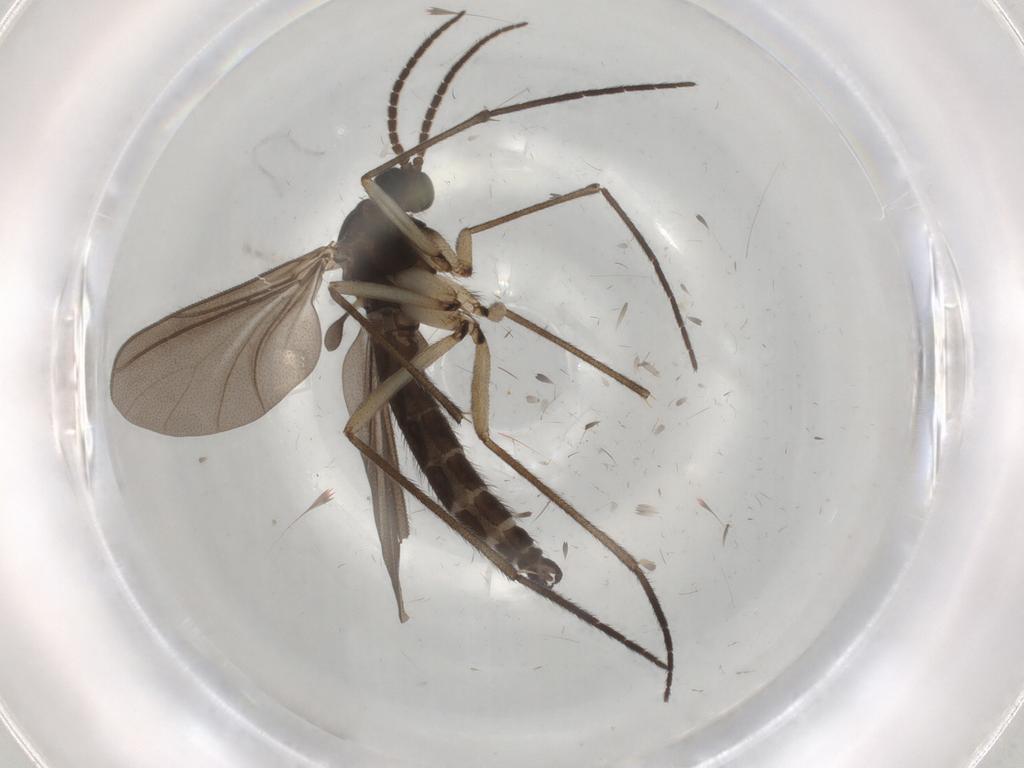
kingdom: Animalia
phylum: Arthropoda
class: Insecta
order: Diptera
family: Sciaridae
